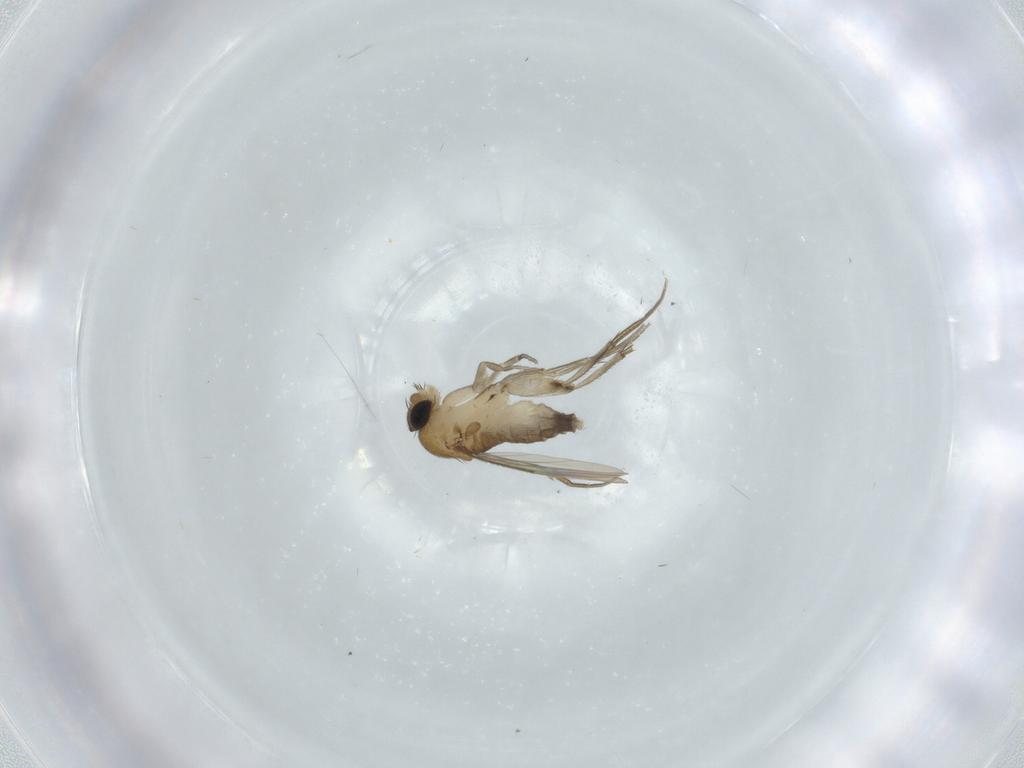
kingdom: Animalia
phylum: Arthropoda
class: Insecta
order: Diptera
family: Phoridae
